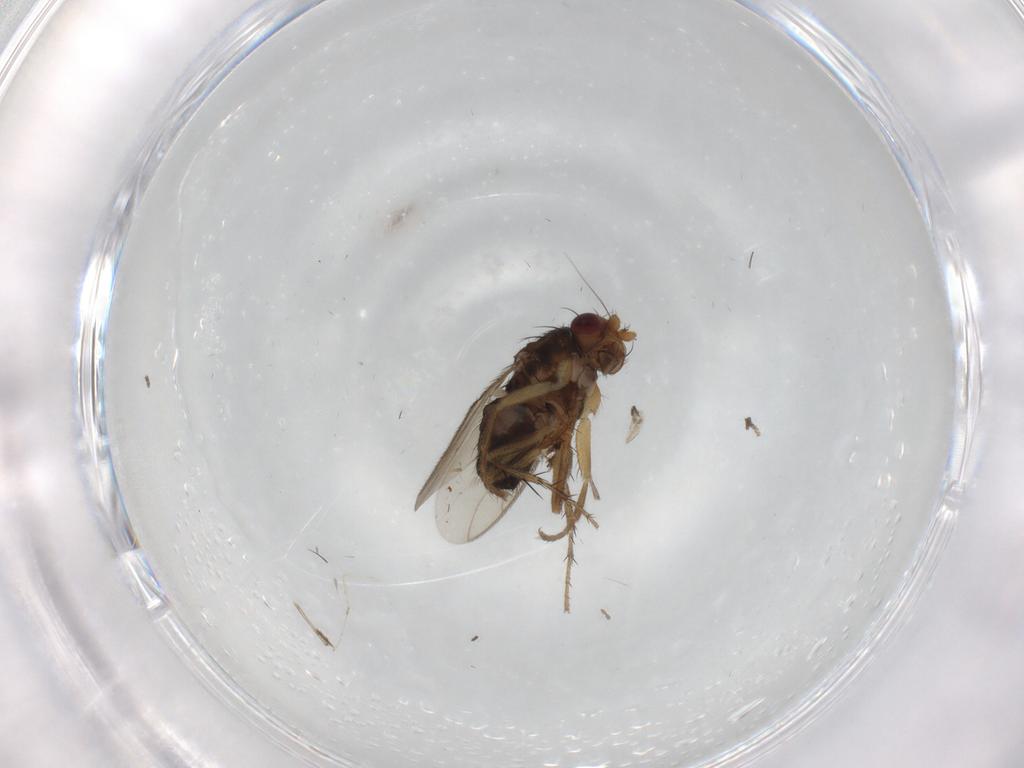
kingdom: Animalia
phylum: Arthropoda
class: Insecta
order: Diptera
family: Sphaeroceridae
